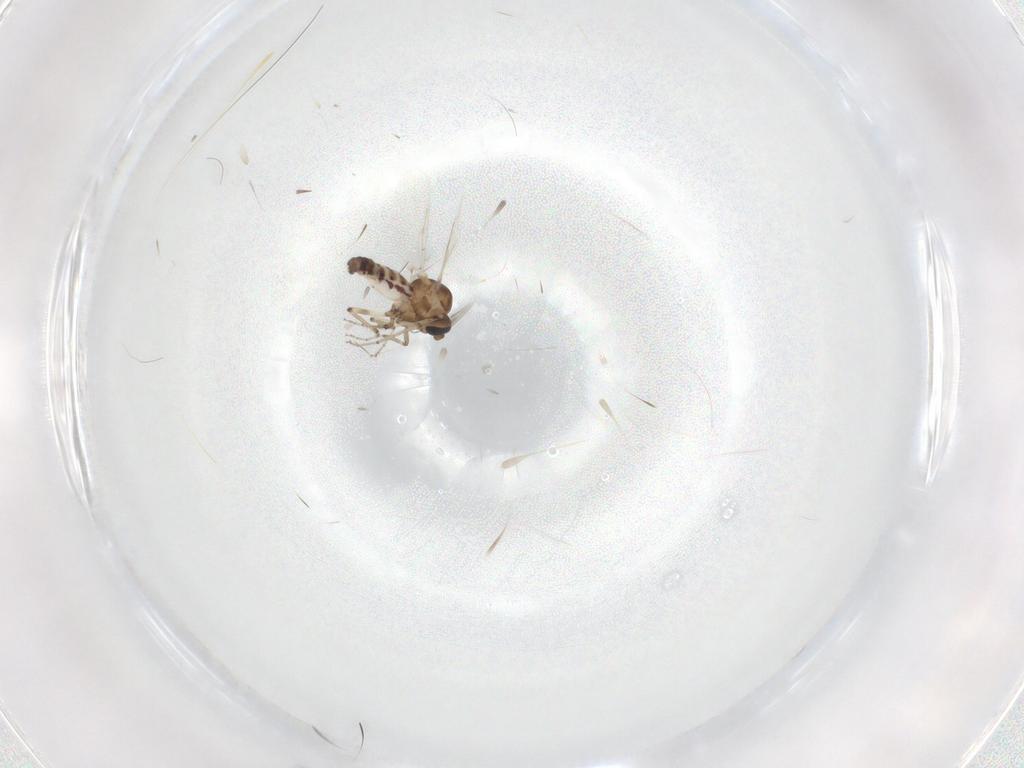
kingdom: Animalia
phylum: Arthropoda
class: Insecta
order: Diptera
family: Ceratopogonidae
